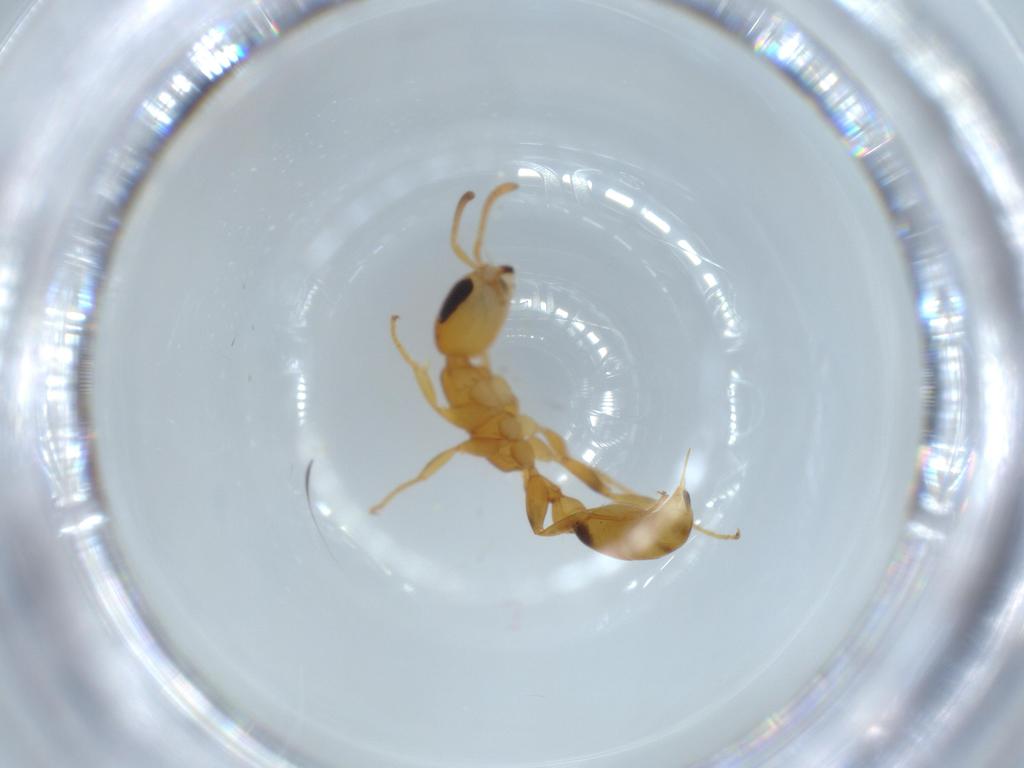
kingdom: Animalia
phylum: Arthropoda
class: Insecta
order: Hymenoptera
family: Formicidae
